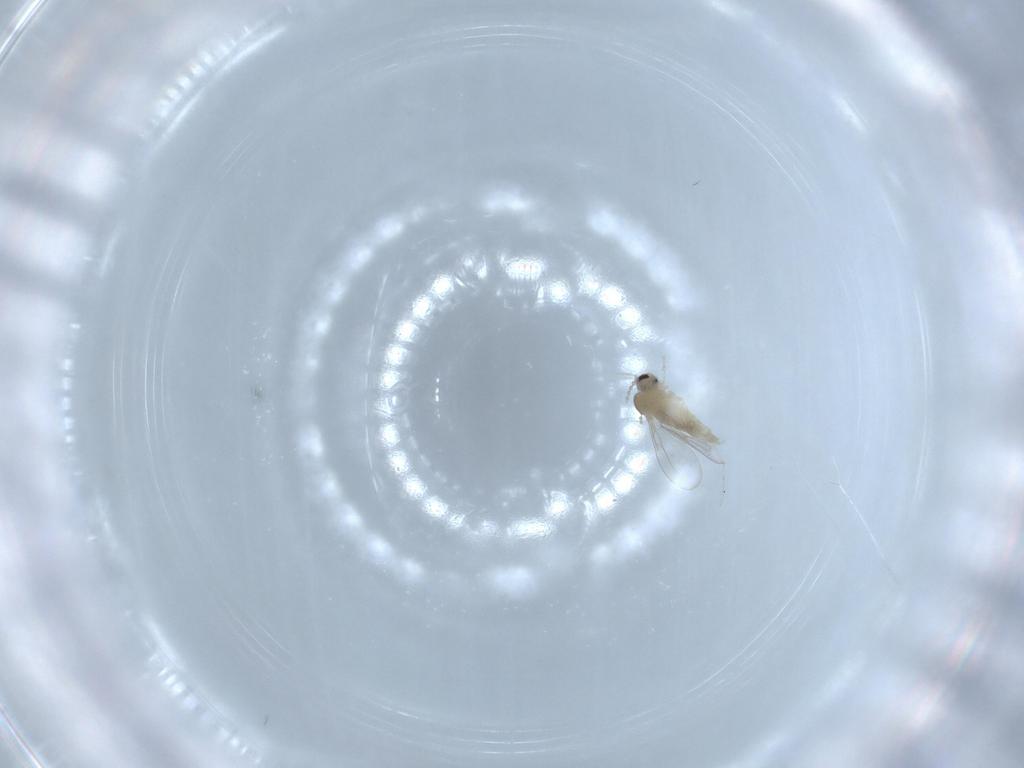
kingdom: Animalia
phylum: Arthropoda
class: Insecta
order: Diptera
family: Cecidomyiidae
